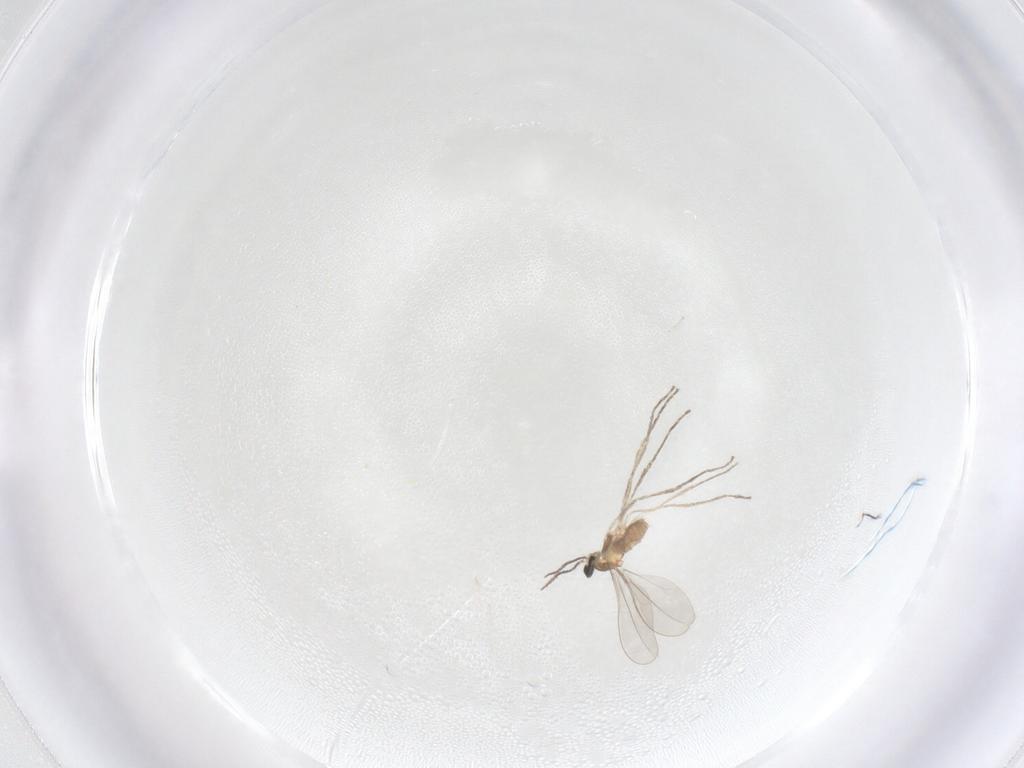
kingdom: Animalia
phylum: Arthropoda
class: Insecta
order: Diptera
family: Cecidomyiidae
